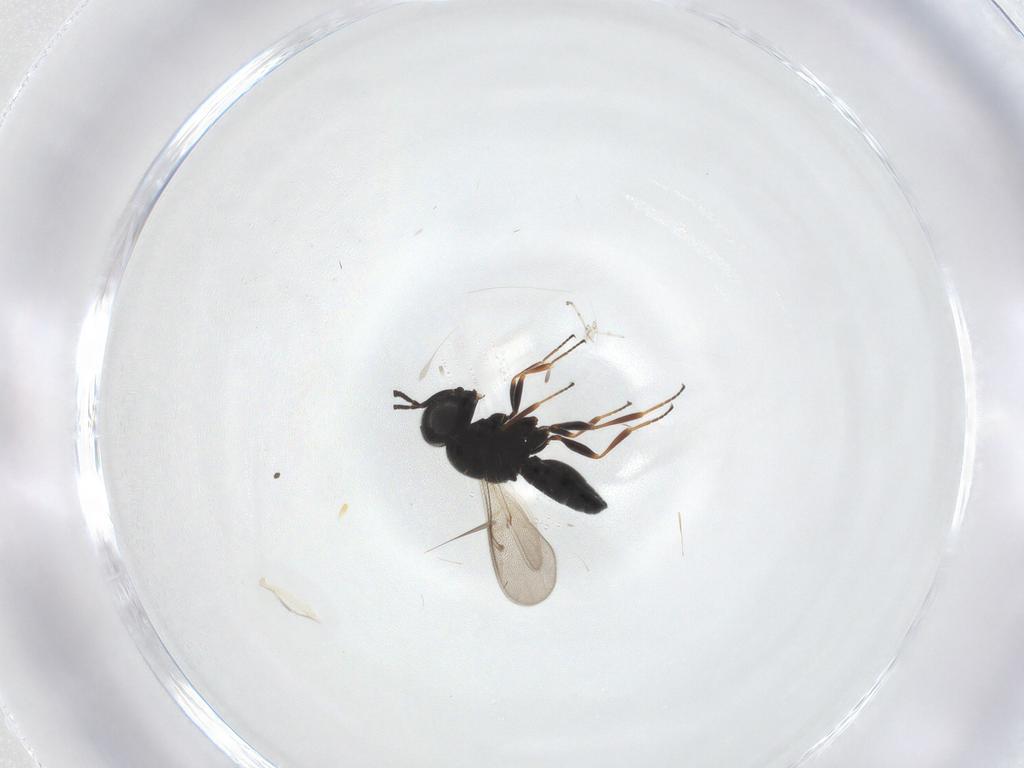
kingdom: Animalia
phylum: Arthropoda
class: Insecta
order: Hymenoptera
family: Scelionidae
